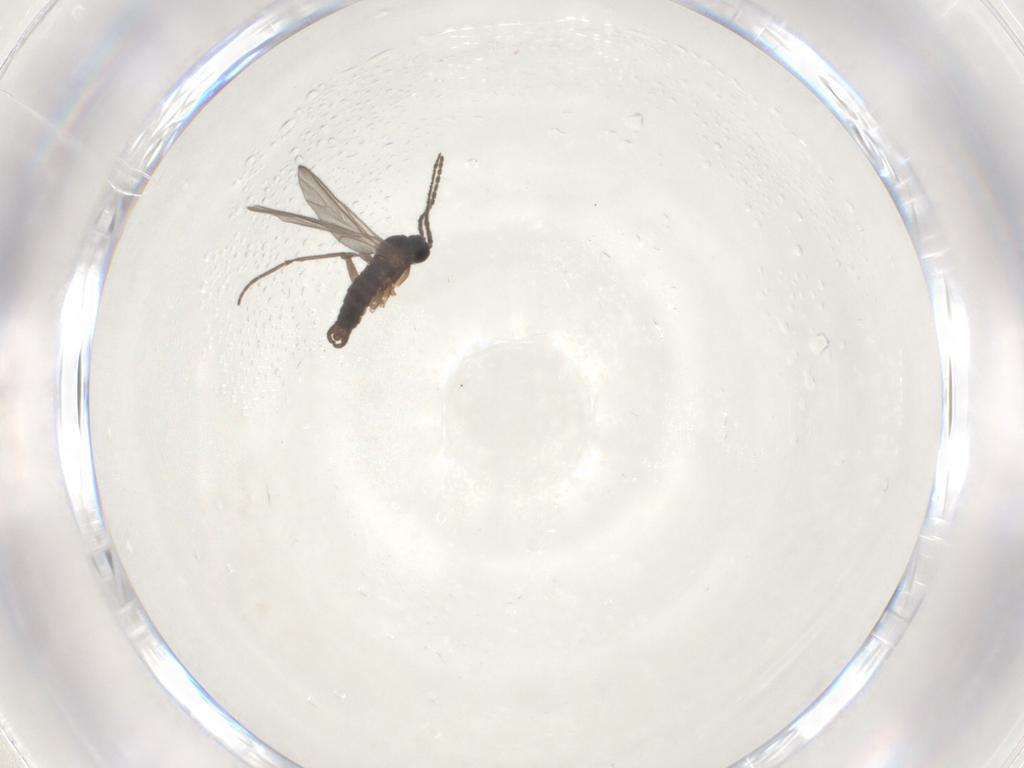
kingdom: Animalia
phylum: Arthropoda
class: Insecta
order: Diptera
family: Sciaridae
